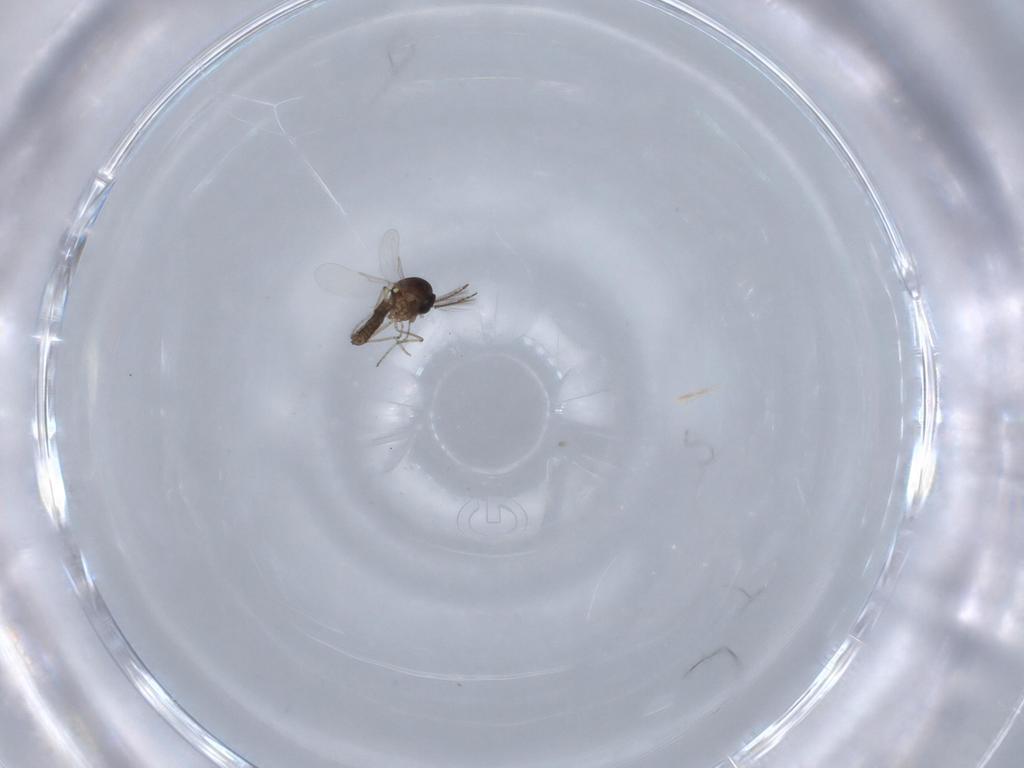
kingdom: Animalia
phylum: Arthropoda
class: Insecta
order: Diptera
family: Ceratopogonidae
